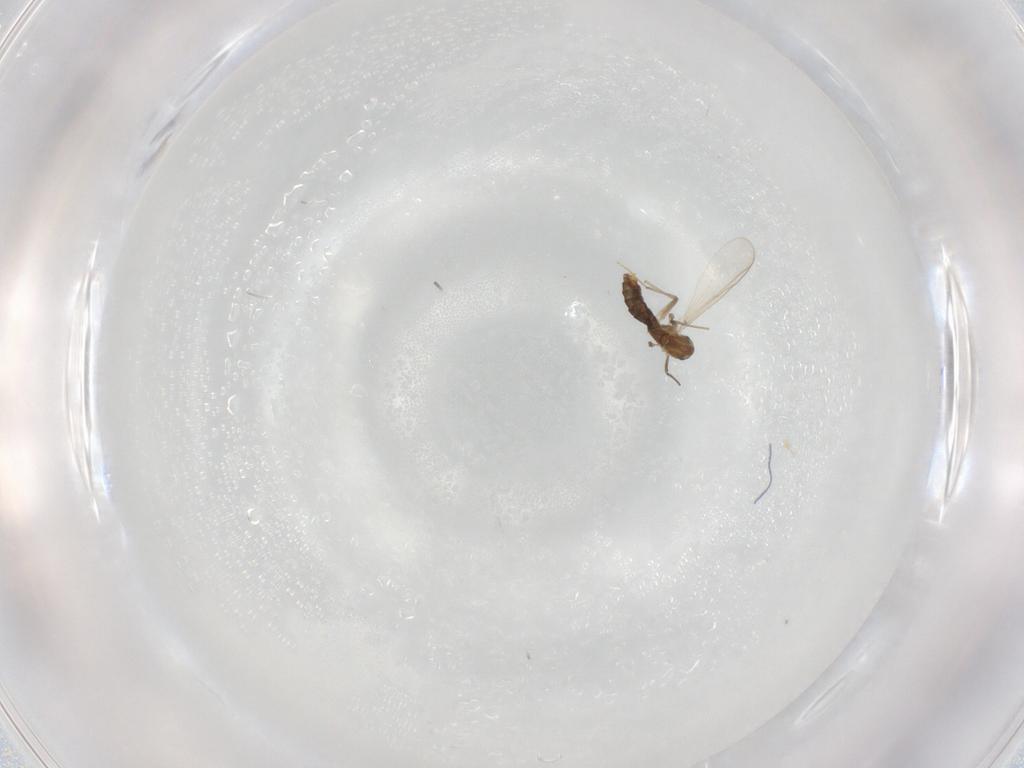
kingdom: Animalia
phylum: Arthropoda
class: Insecta
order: Diptera
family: Chironomidae
